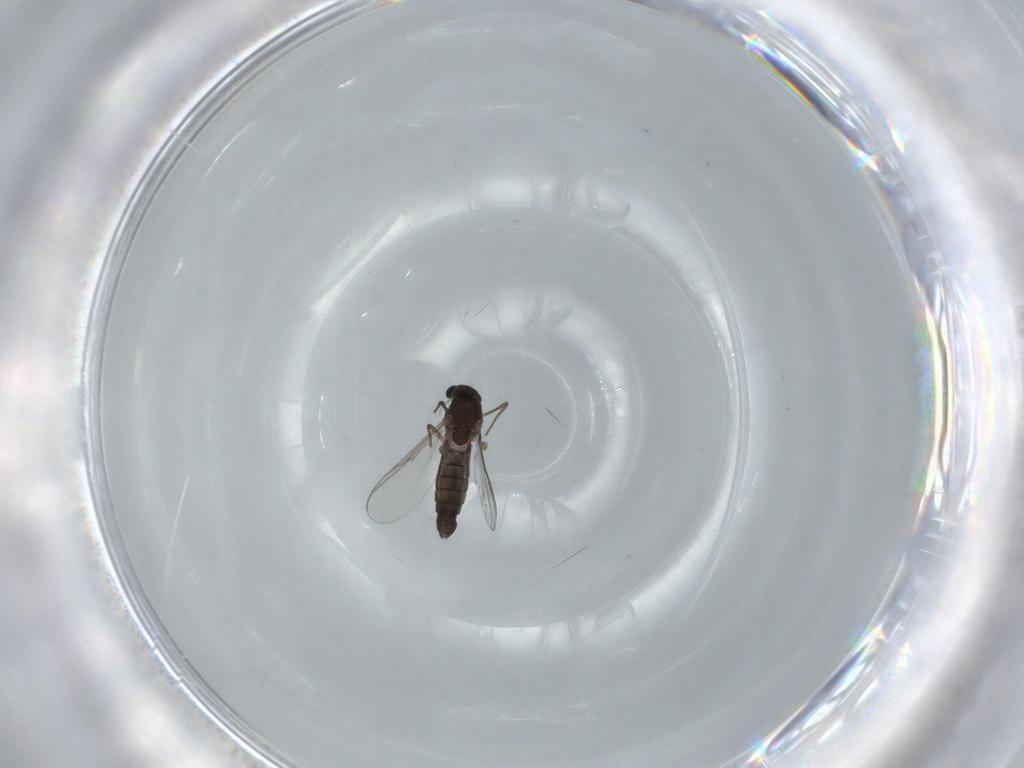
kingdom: Animalia
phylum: Arthropoda
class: Insecta
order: Diptera
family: Chironomidae
